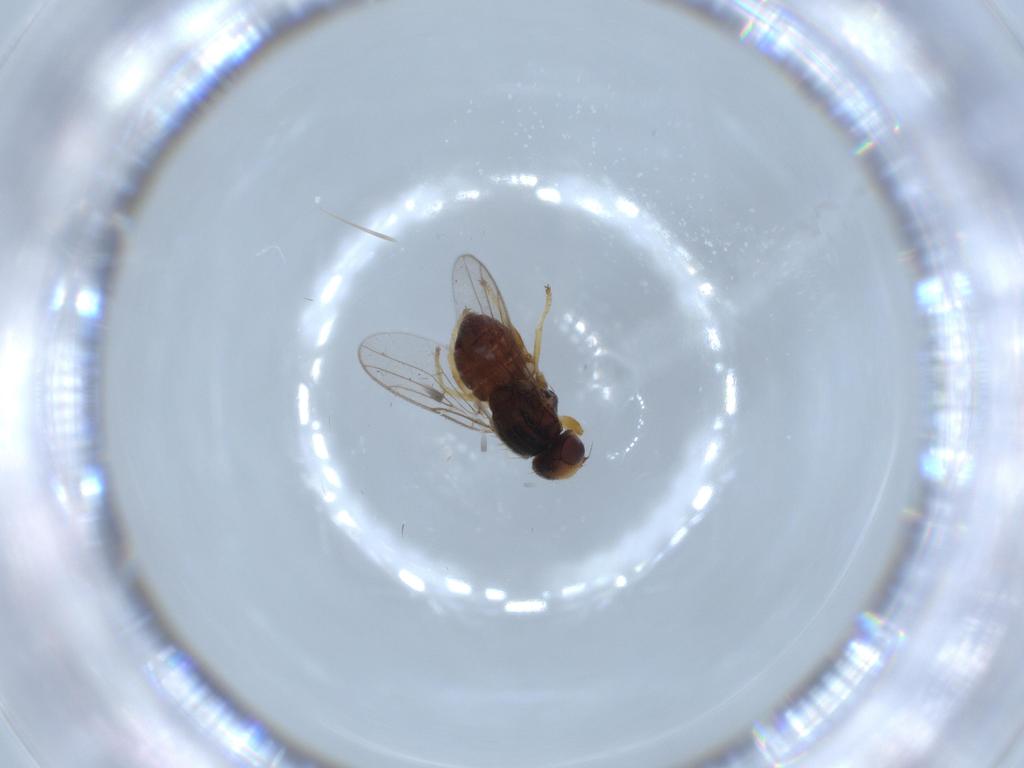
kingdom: Animalia
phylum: Arthropoda
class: Insecta
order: Diptera
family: Chloropidae
